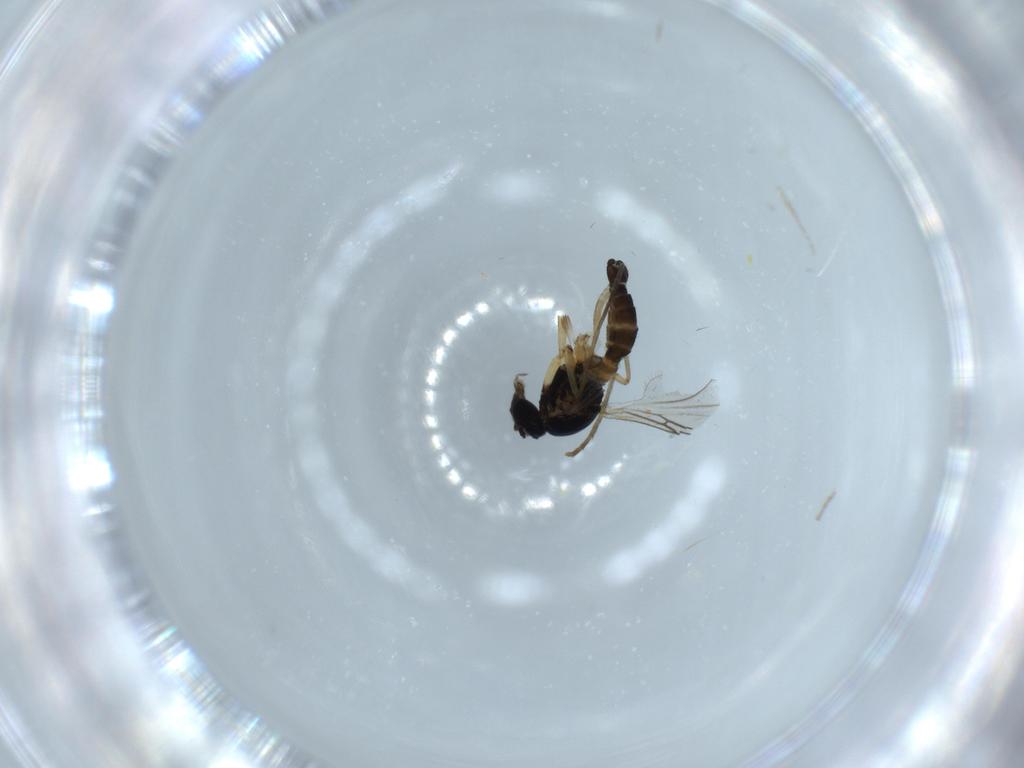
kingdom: Animalia
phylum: Arthropoda
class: Insecta
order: Diptera
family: Sciaridae
